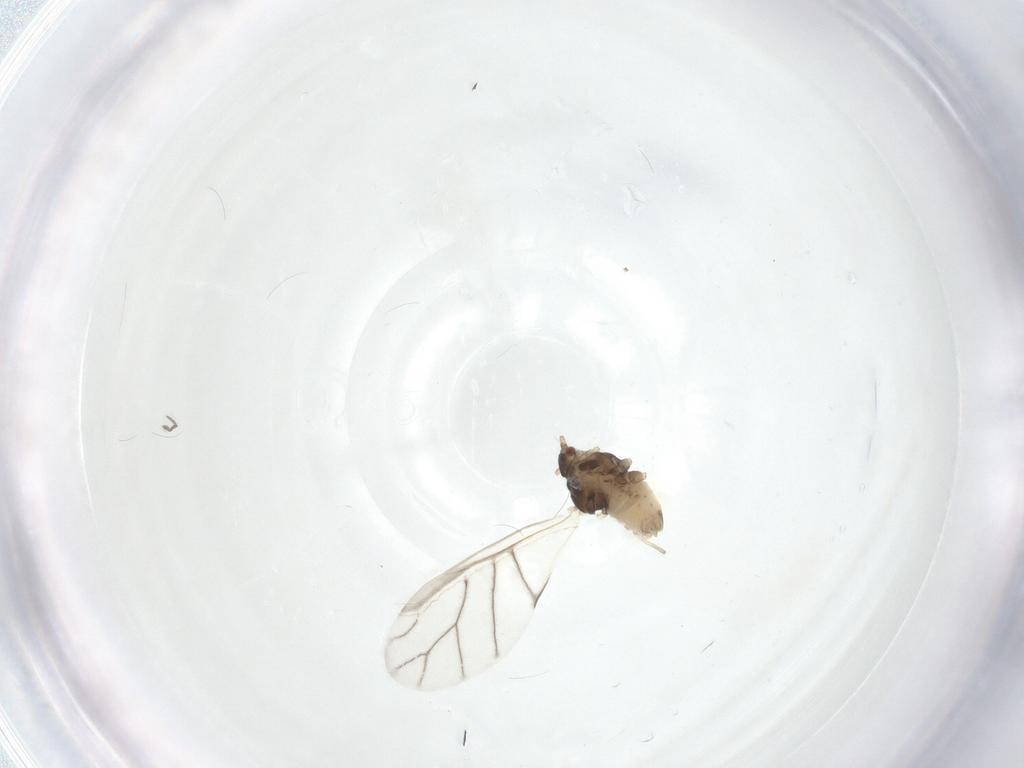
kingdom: Animalia
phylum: Arthropoda
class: Insecta
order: Hemiptera
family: Aphididae
